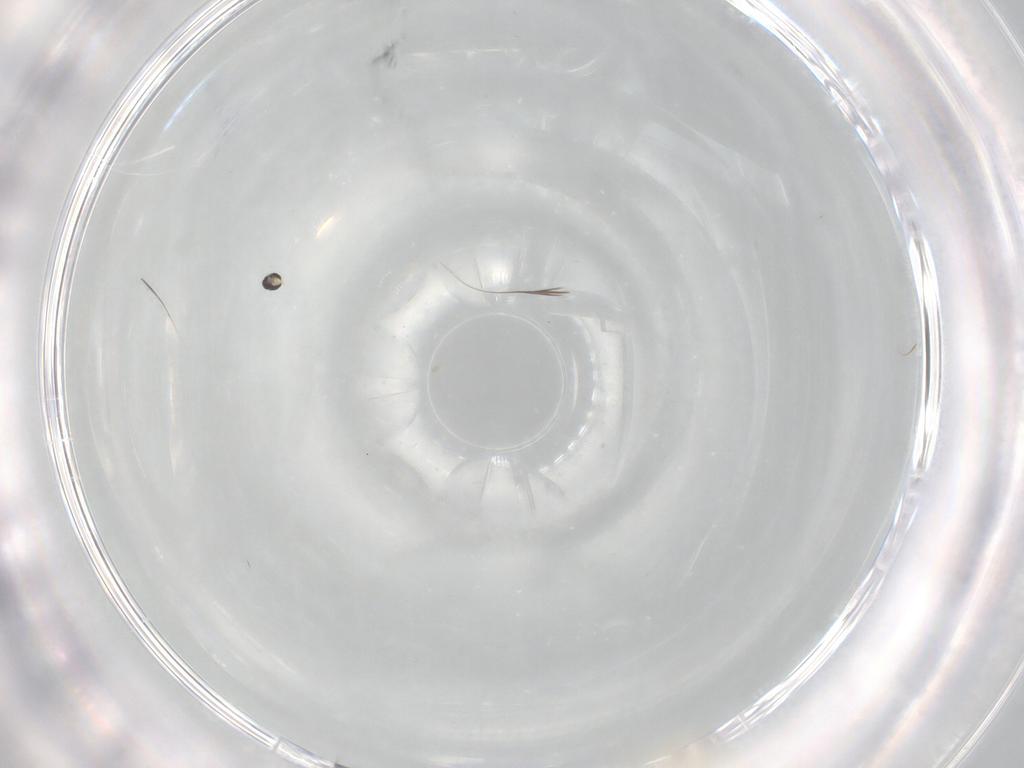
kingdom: Animalia
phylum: Arthropoda
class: Insecta
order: Diptera
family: Cecidomyiidae
